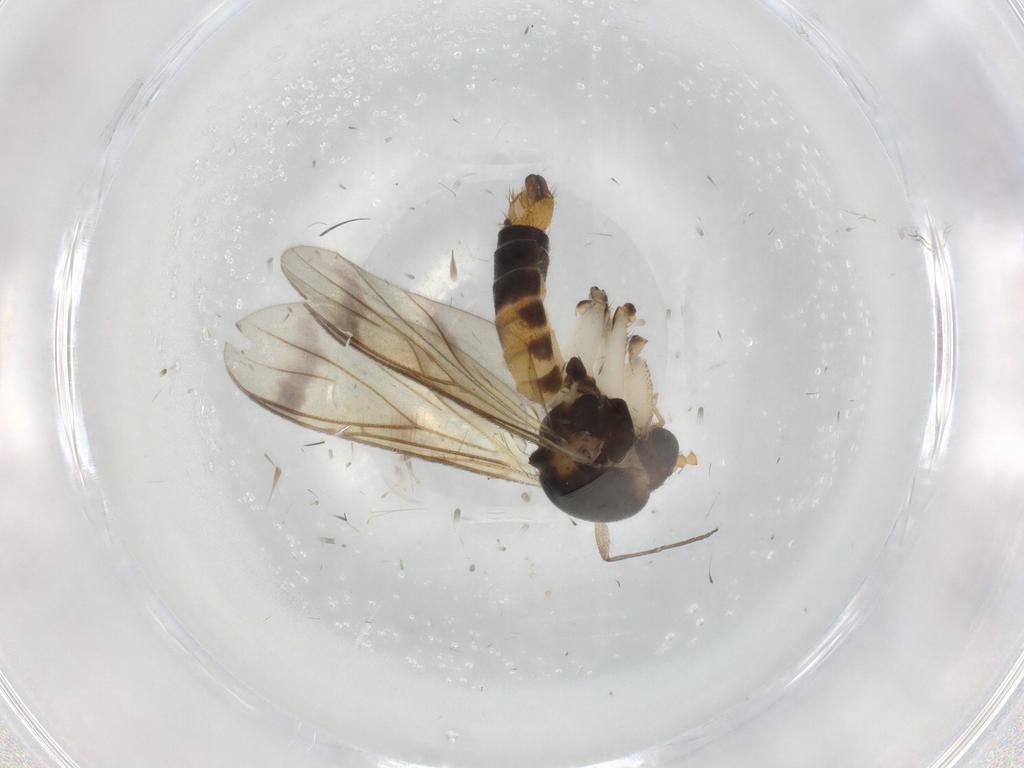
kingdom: Animalia
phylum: Arthropoda
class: Insecta
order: Diptera
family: Mycetophilidae
